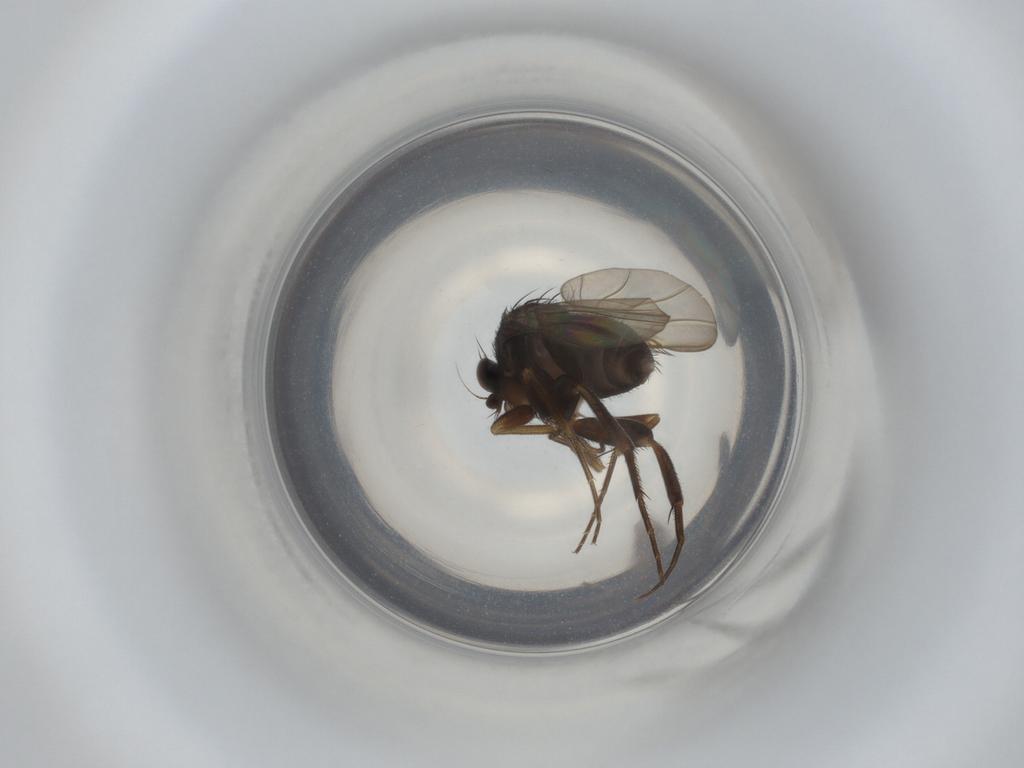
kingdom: Animalia
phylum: Arthropoda
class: Insecta
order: Diptera
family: Phoridae
